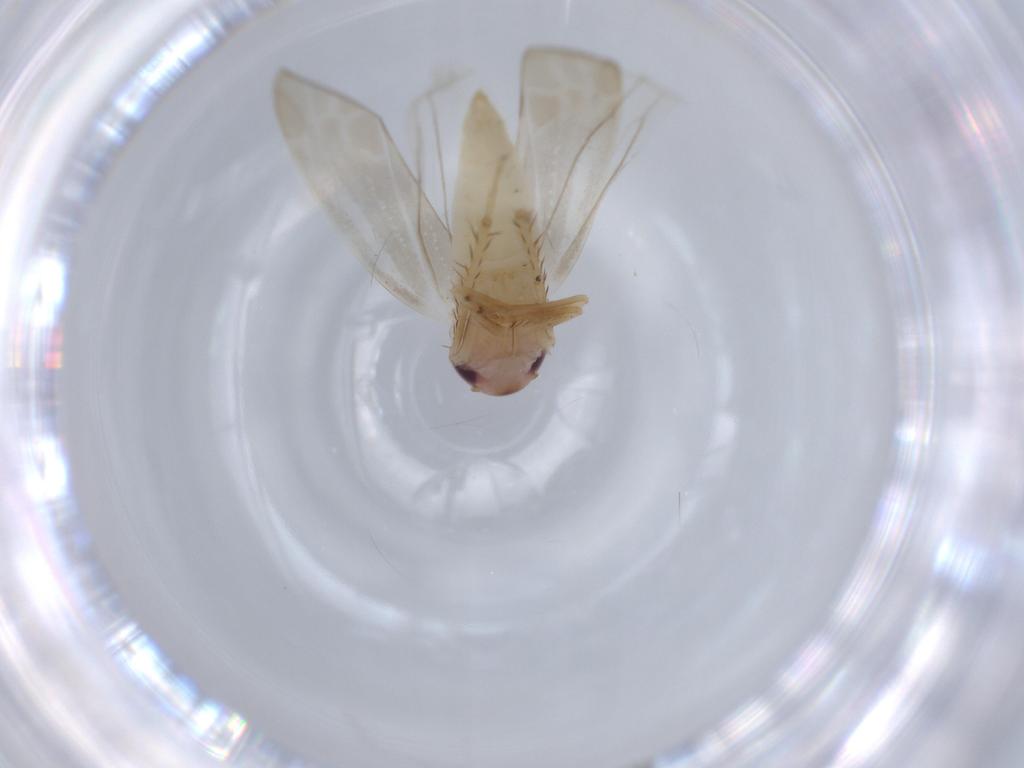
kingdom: Animalia
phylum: Arthropoda
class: Insecta
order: Hemiptera
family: Cicadellidae
